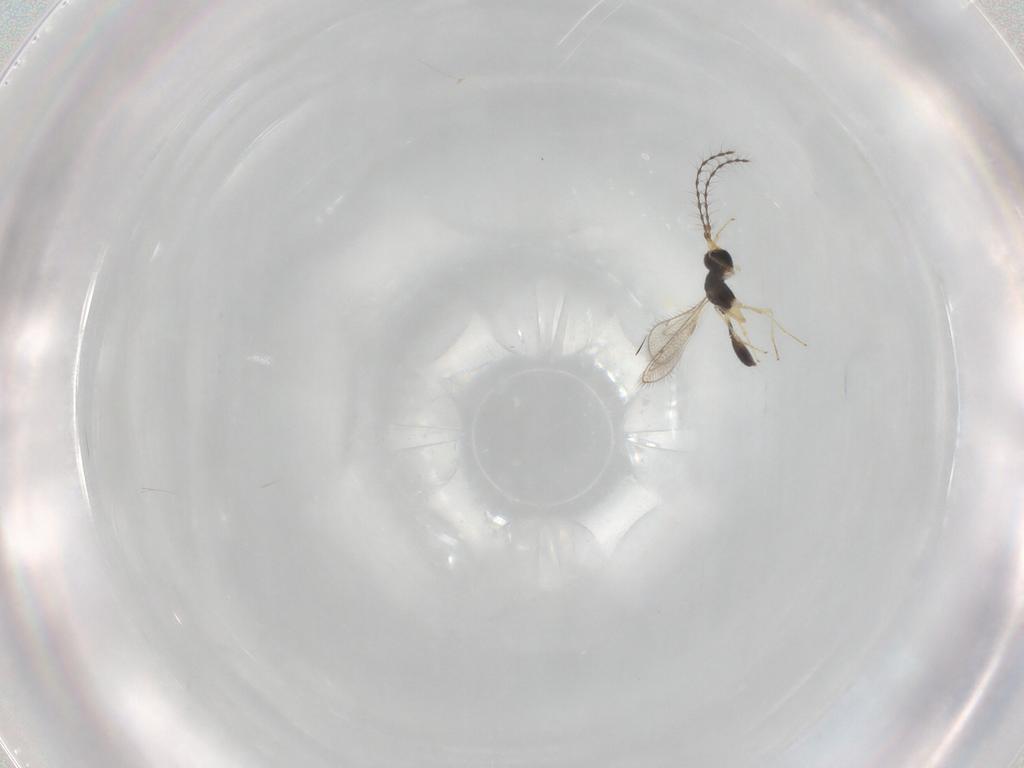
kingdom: Animalia
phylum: Arthropoda
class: Insecta
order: Hymenoptera
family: Diparidae
